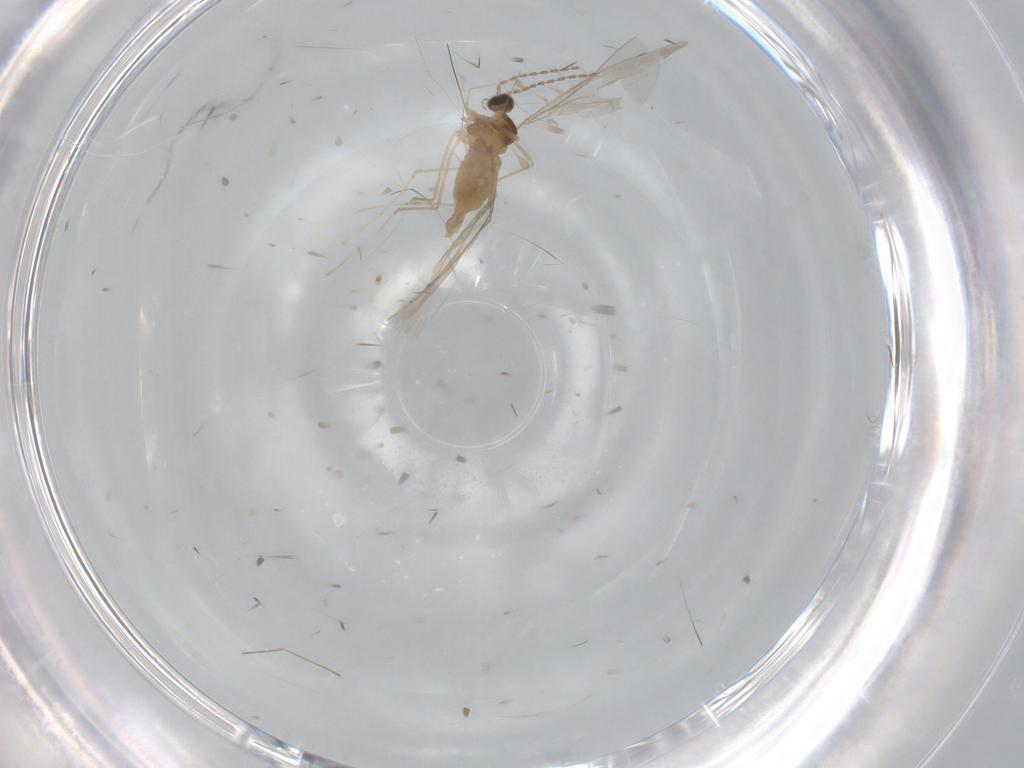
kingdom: Animalia
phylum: Arthropoda
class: Insecta
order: Diptera
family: Cecidomyiidae
